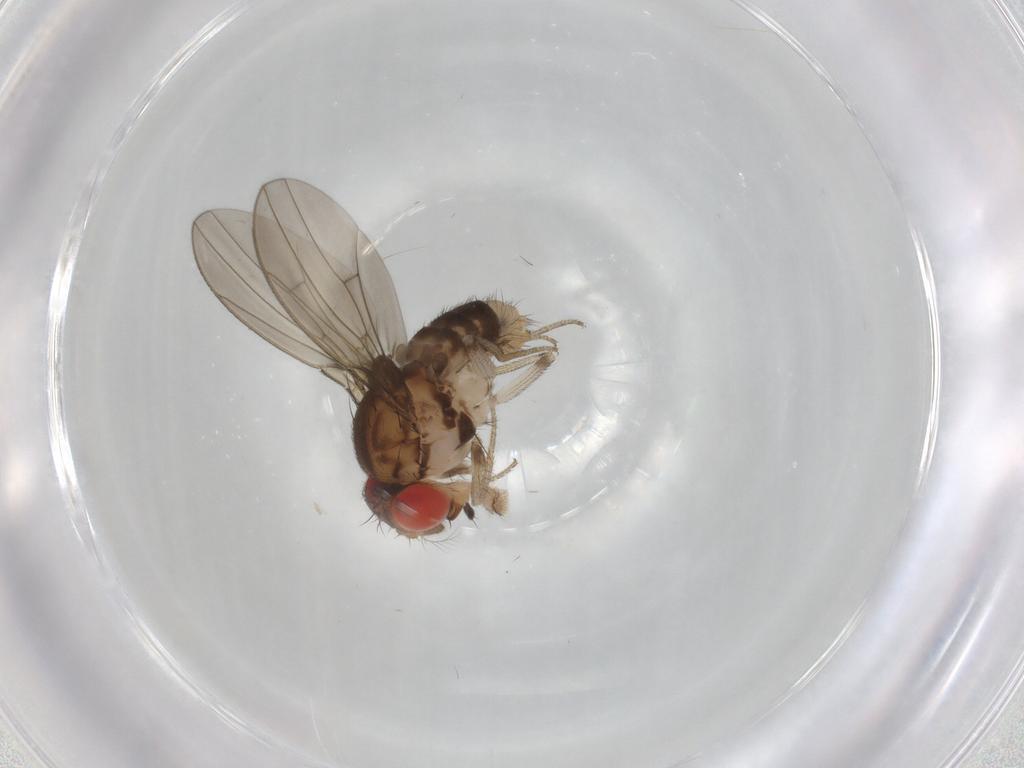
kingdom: Animalia
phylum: Arthropoda
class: Insecta
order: Diptera
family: Drosophilidae
